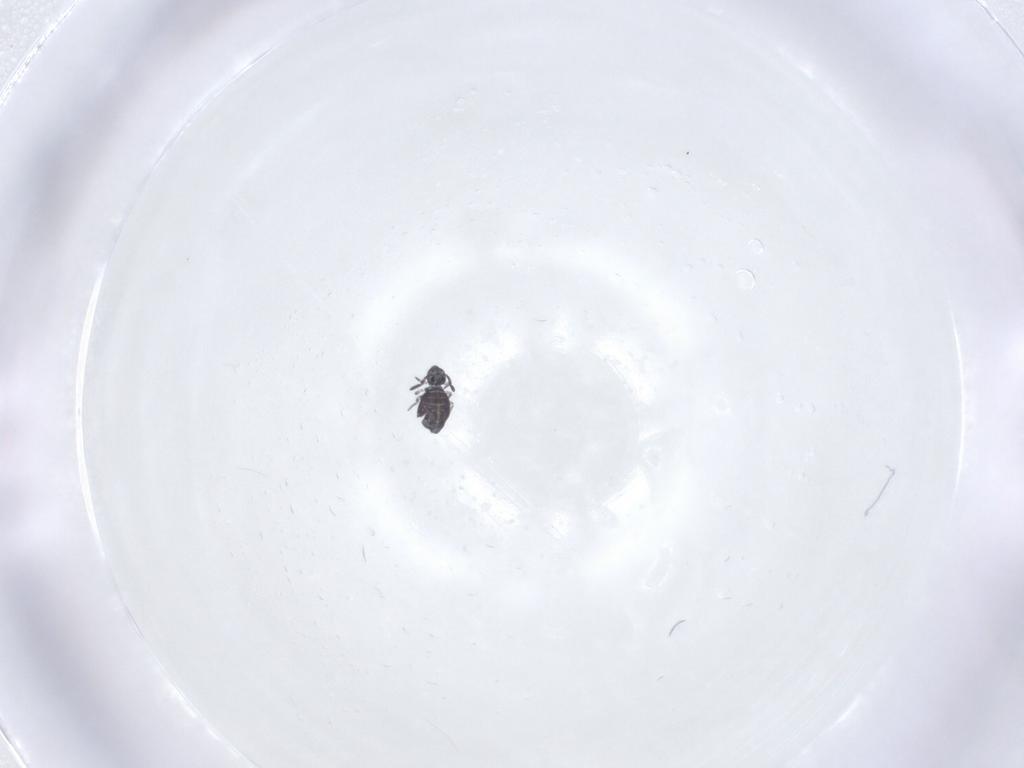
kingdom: Animalia
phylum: Arthropoda
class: Collembola
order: Symphypleona
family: Katiannidae
